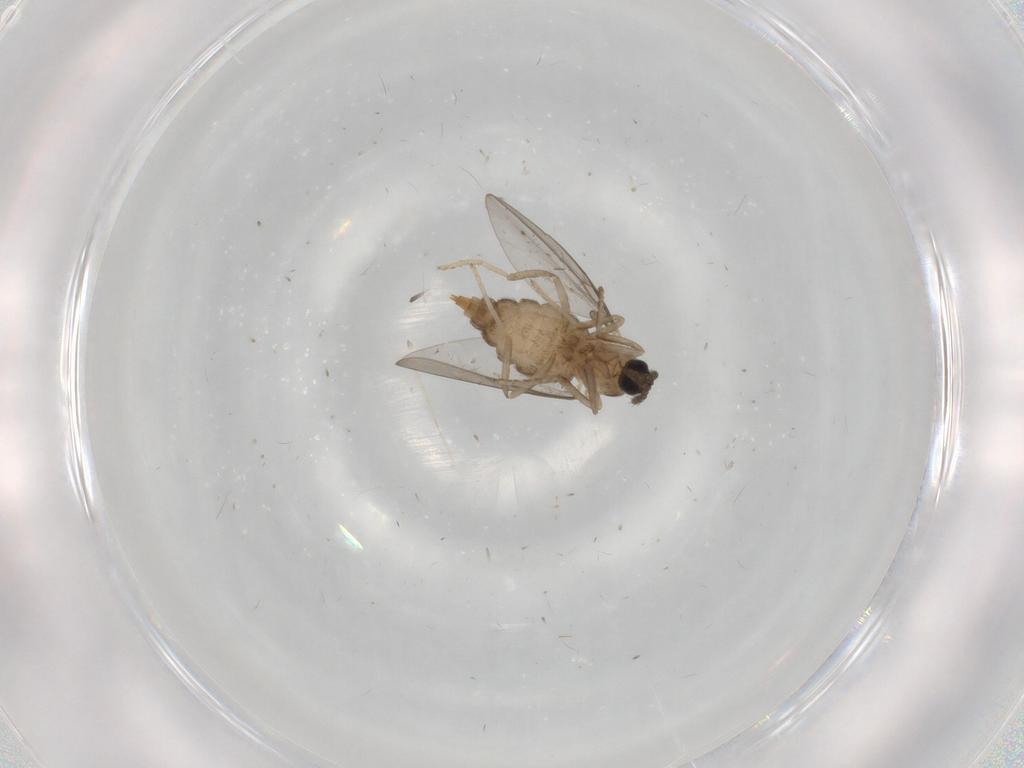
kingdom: Animalia
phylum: Arthropoda
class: Insecta
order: Diptera
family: Cecidomyiidae
